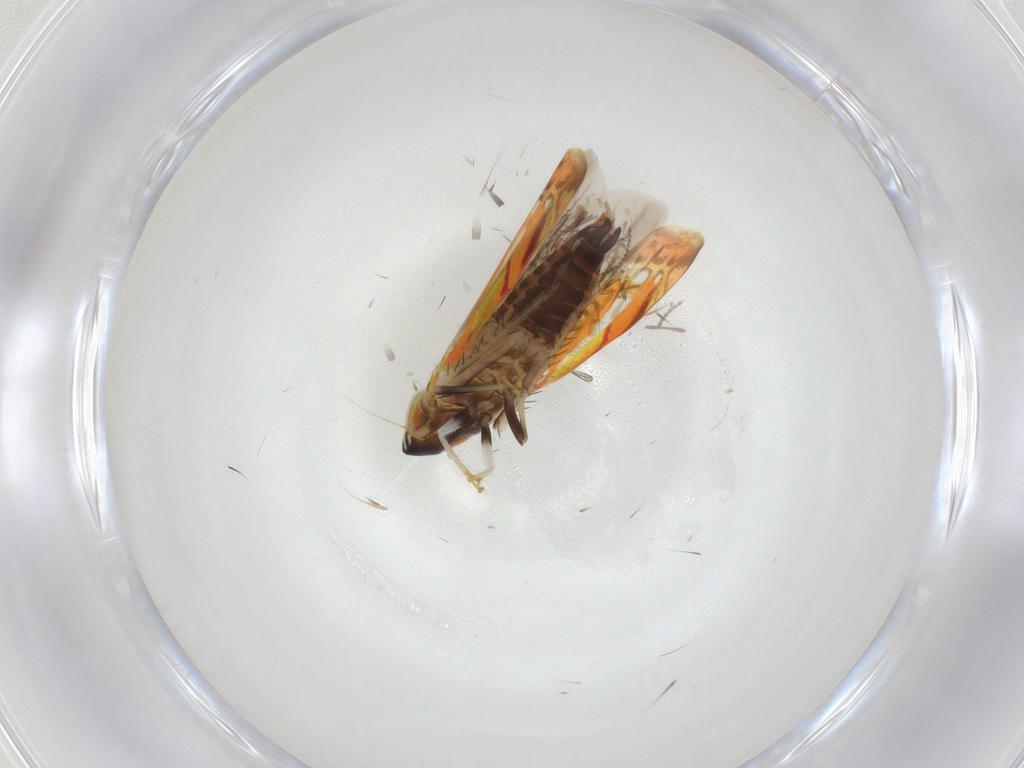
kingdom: Animalia
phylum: Arthropoda
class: Insecta
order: Hemiptera
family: Cicadellidae
